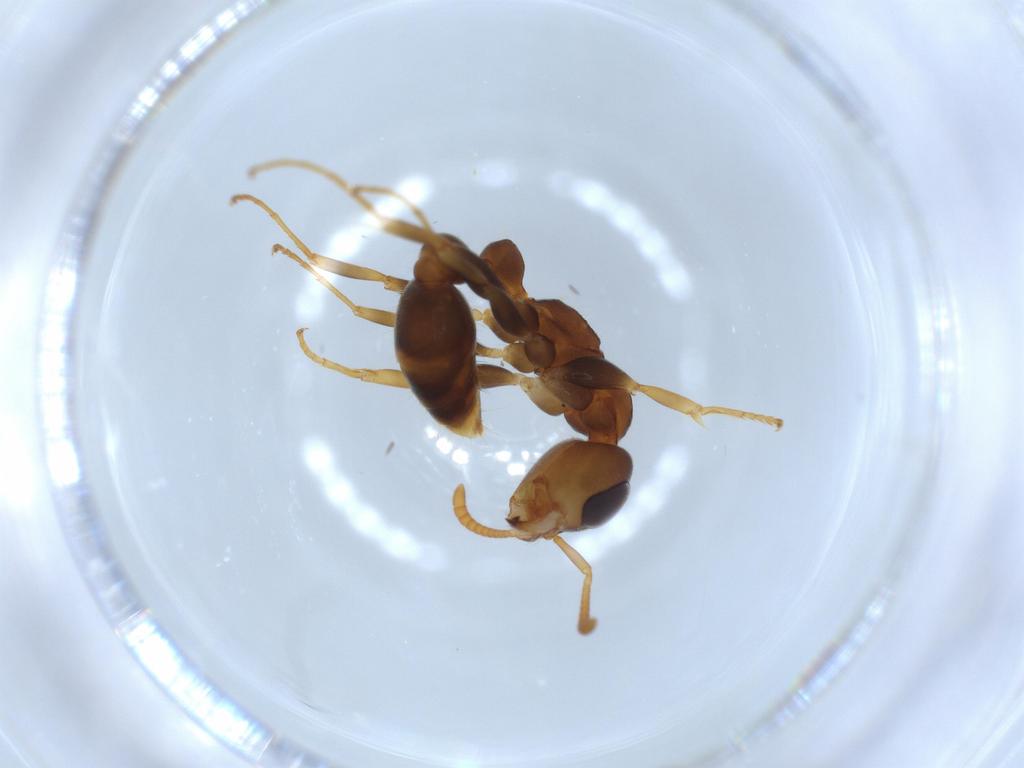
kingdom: Animalia
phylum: Arthropoda
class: Insecta
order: Hymenoptera
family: Formicidae
